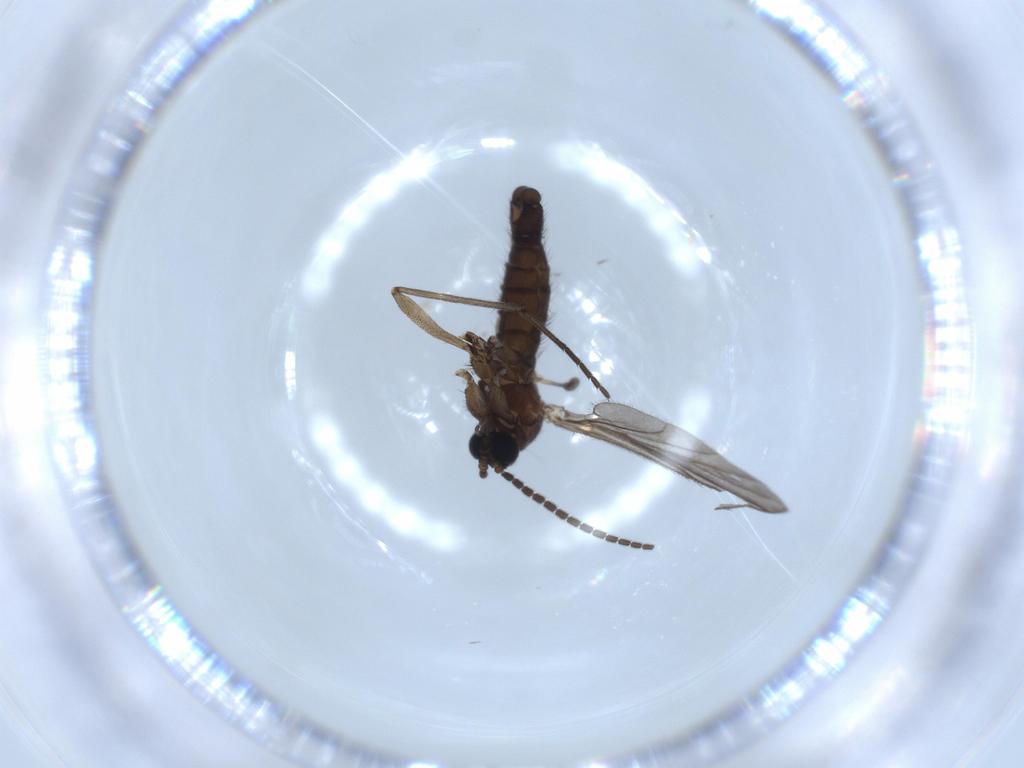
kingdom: Animalia
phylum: Arthropoda
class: Insecta
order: Diptera
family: Sciaridae
